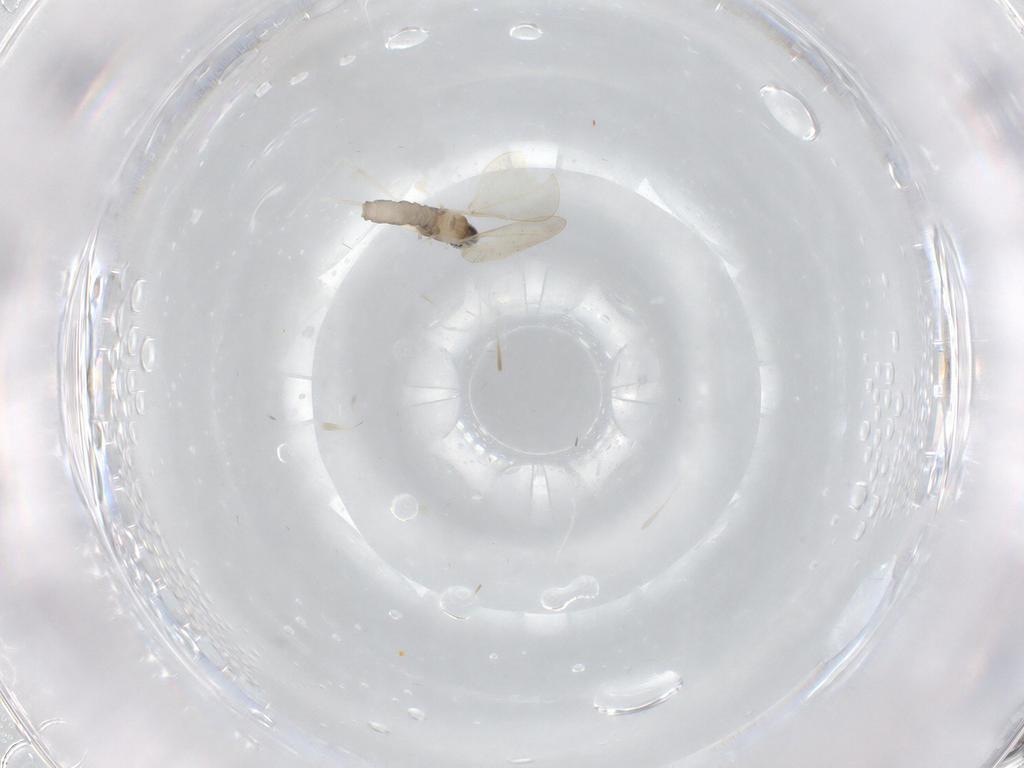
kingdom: Animalia
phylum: Arthropoda
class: Insecta
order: Diptera
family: Cecidomyiidae
